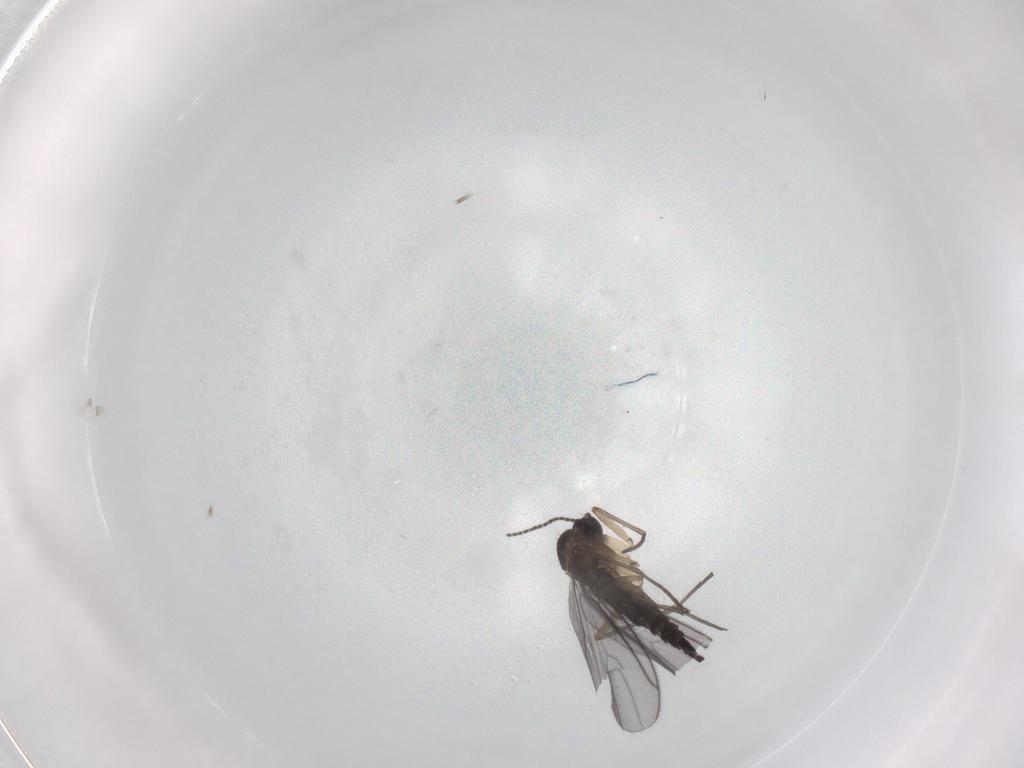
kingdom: Animalia
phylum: Arthropoda
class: Insecta
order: Diptera
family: Sciaridae
